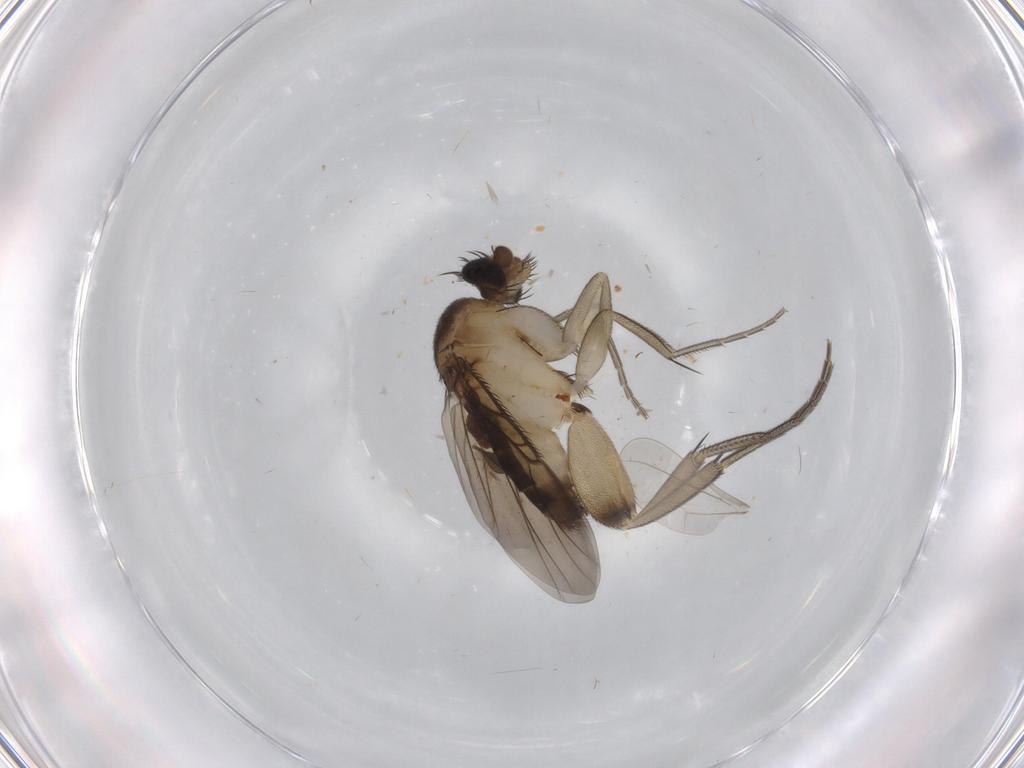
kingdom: Animalia
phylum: Arthropoda
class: Insecta
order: Diptera
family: Phoridae
